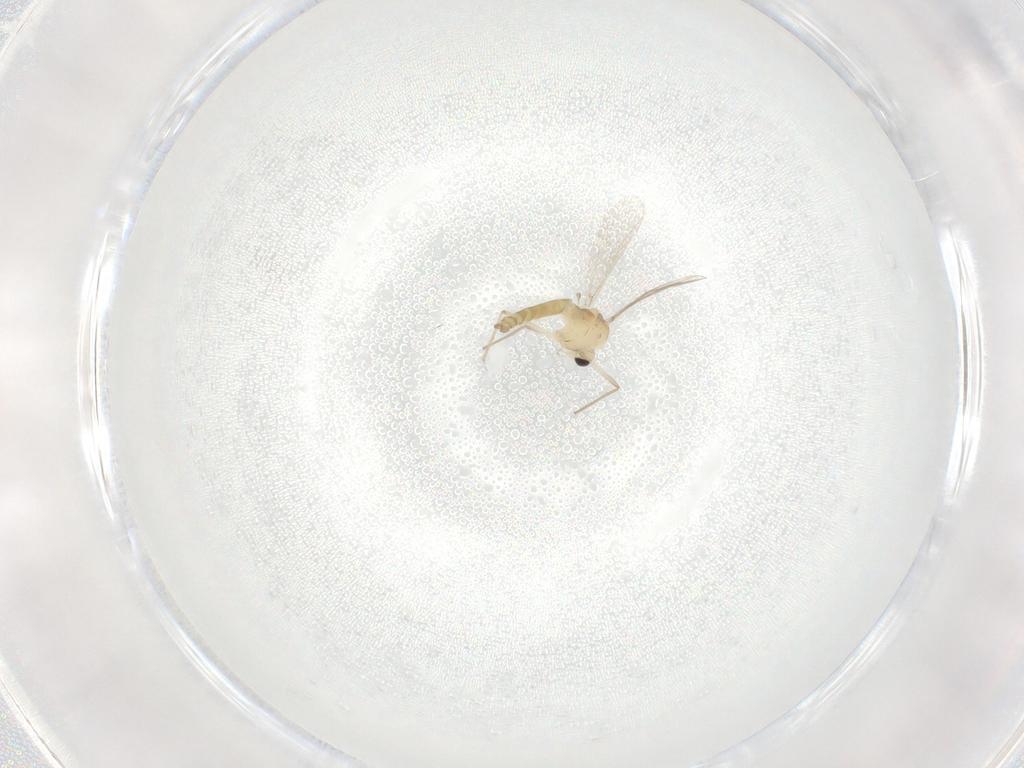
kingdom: Animalia
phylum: Arthropoda
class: Insecta
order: Diptera
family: Chironomidae
